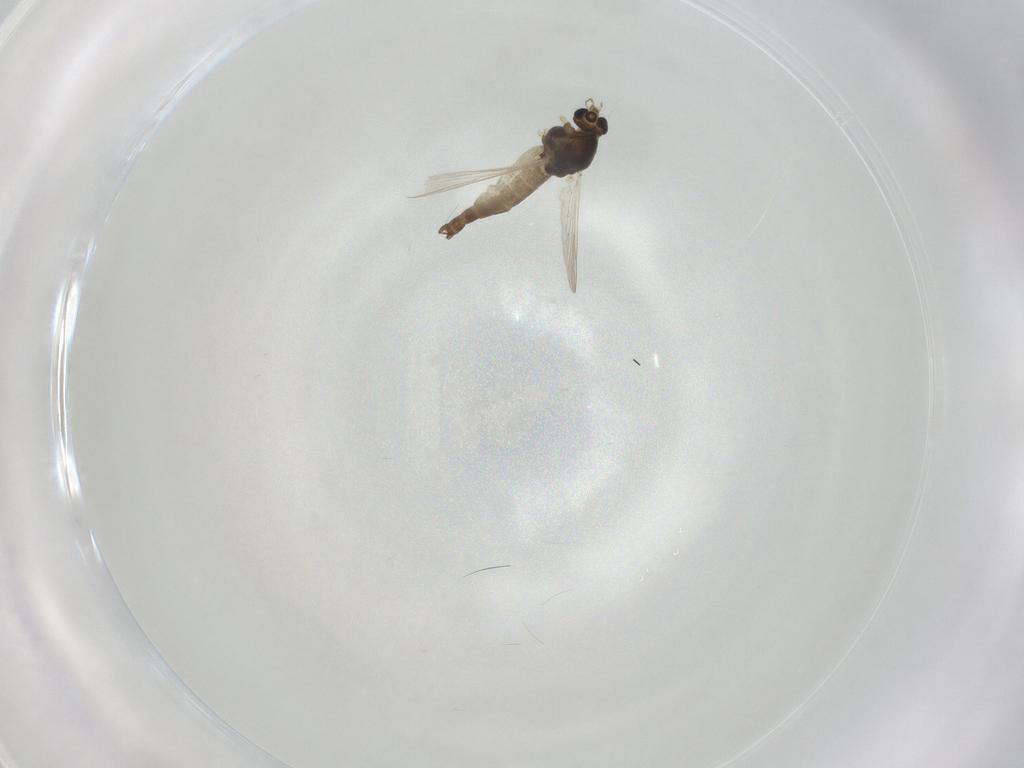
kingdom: Animalia
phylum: Arthropoda
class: Insecta
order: Diptera
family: Chironomidae
